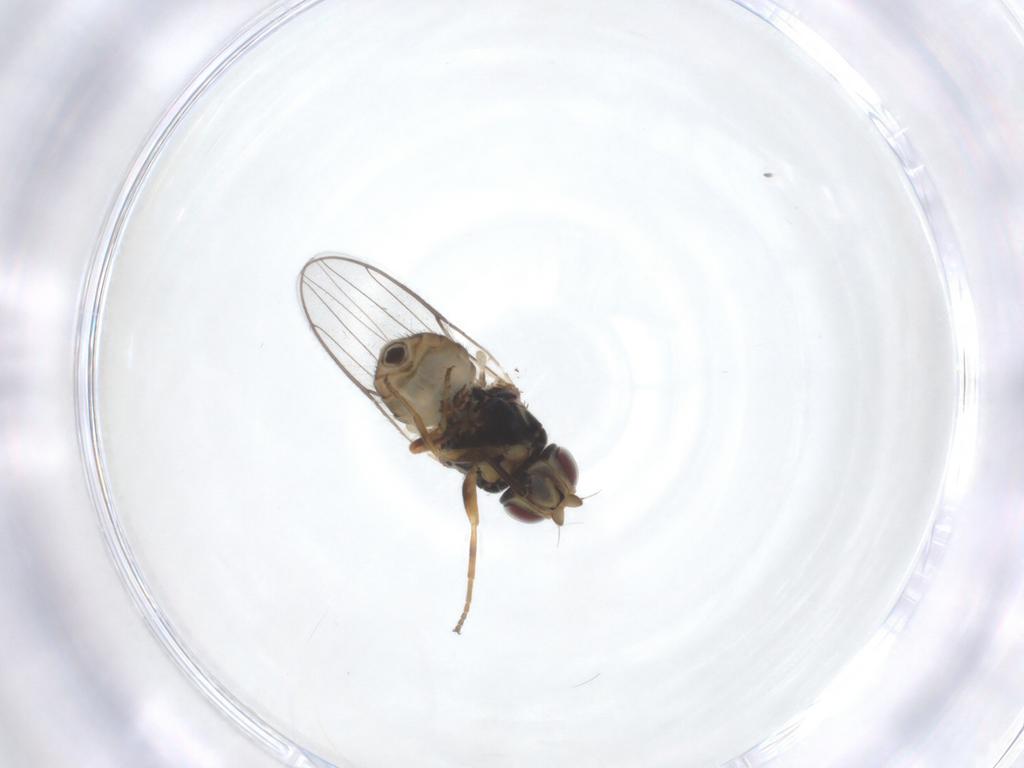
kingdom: Animalia
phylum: Arthropoda
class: Insecta
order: Diptera
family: Chloropidae
